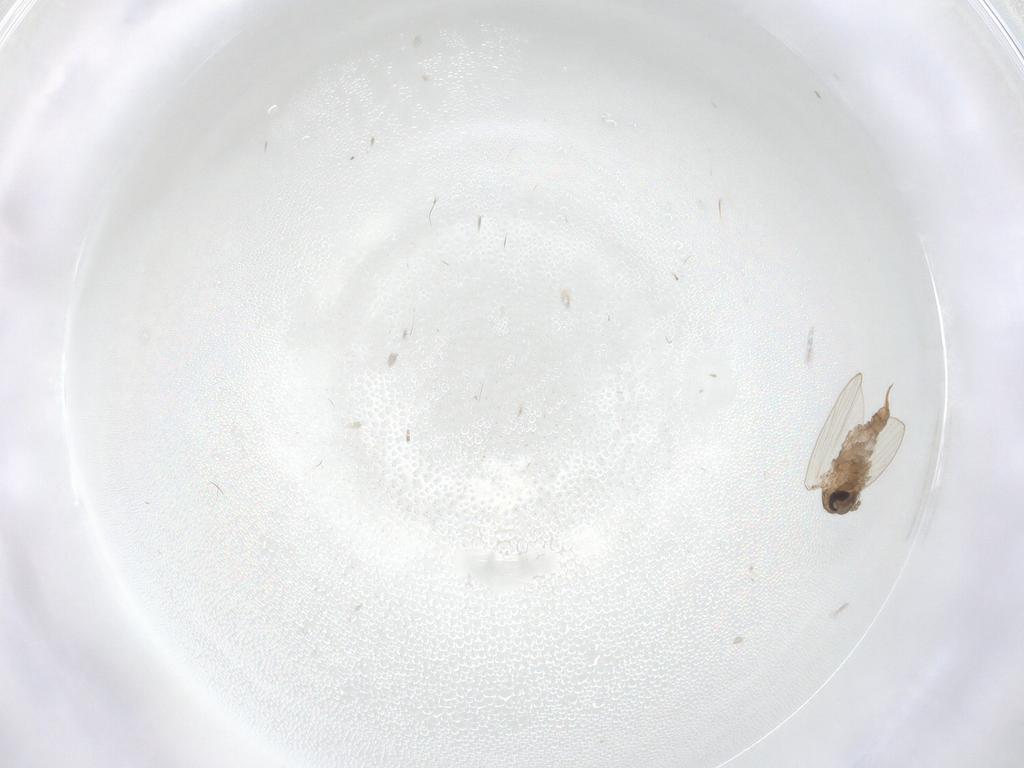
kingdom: Animalia
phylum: Arthropoda
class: Insecta
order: Diptera
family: Psychodidae
